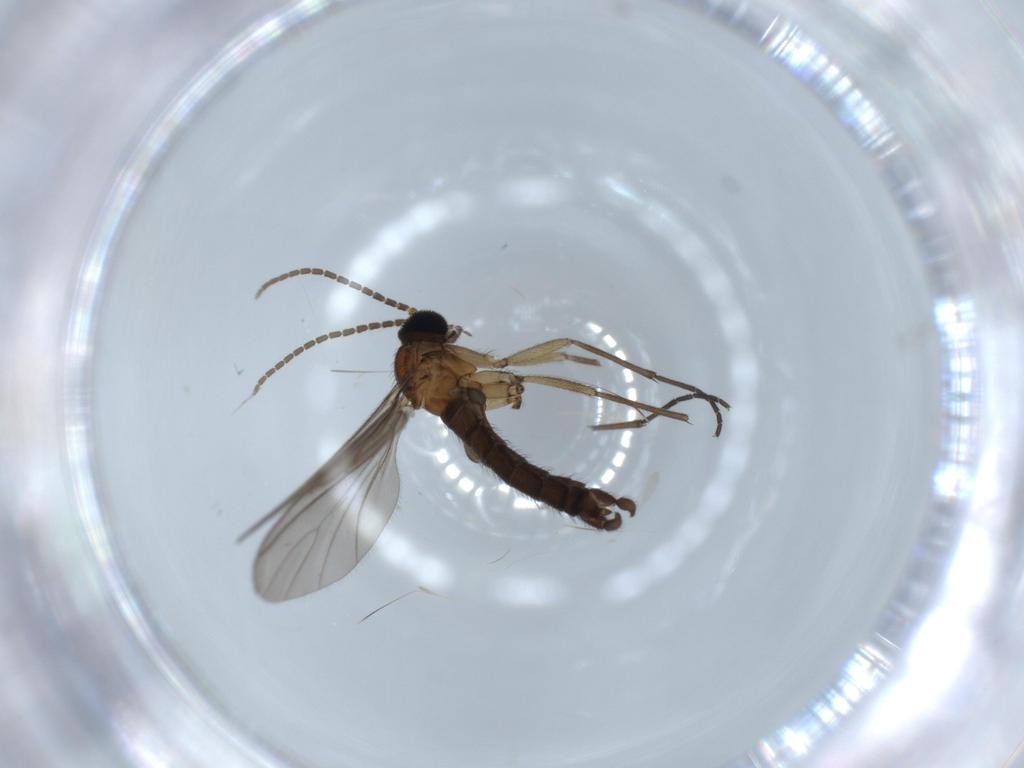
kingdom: Animalia
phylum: Arthropoda
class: Insecta
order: Diptera
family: Sciaridae
